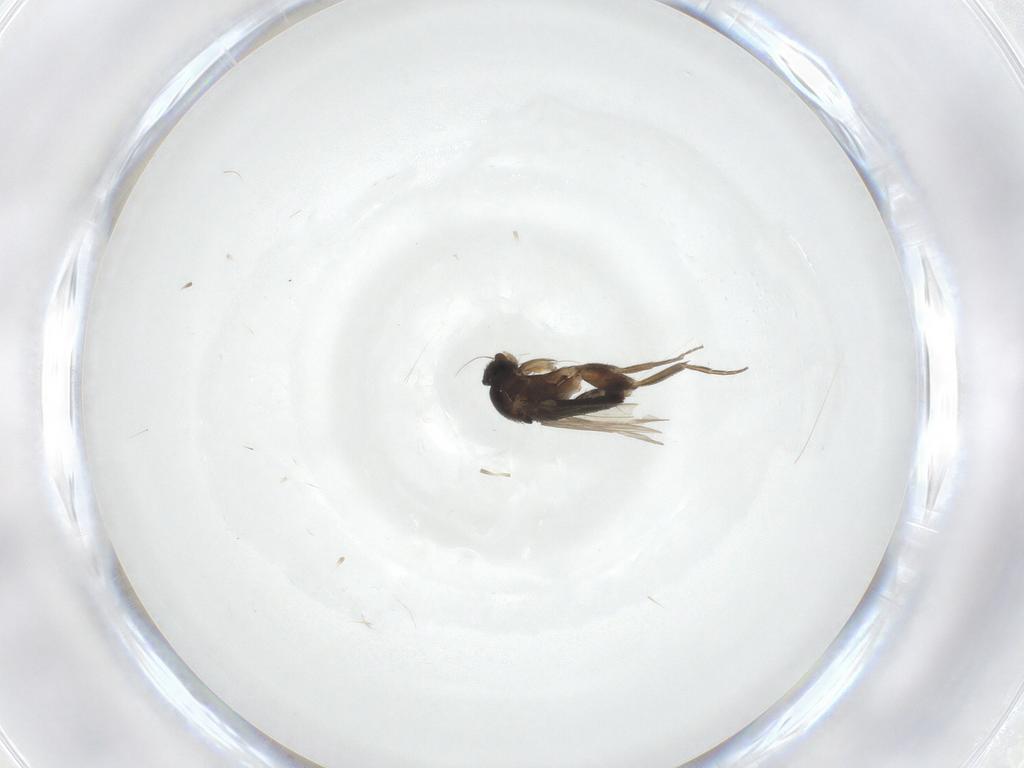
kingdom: Animalia
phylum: Arthropoda
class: Insecta
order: Diptera
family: Phoridae
